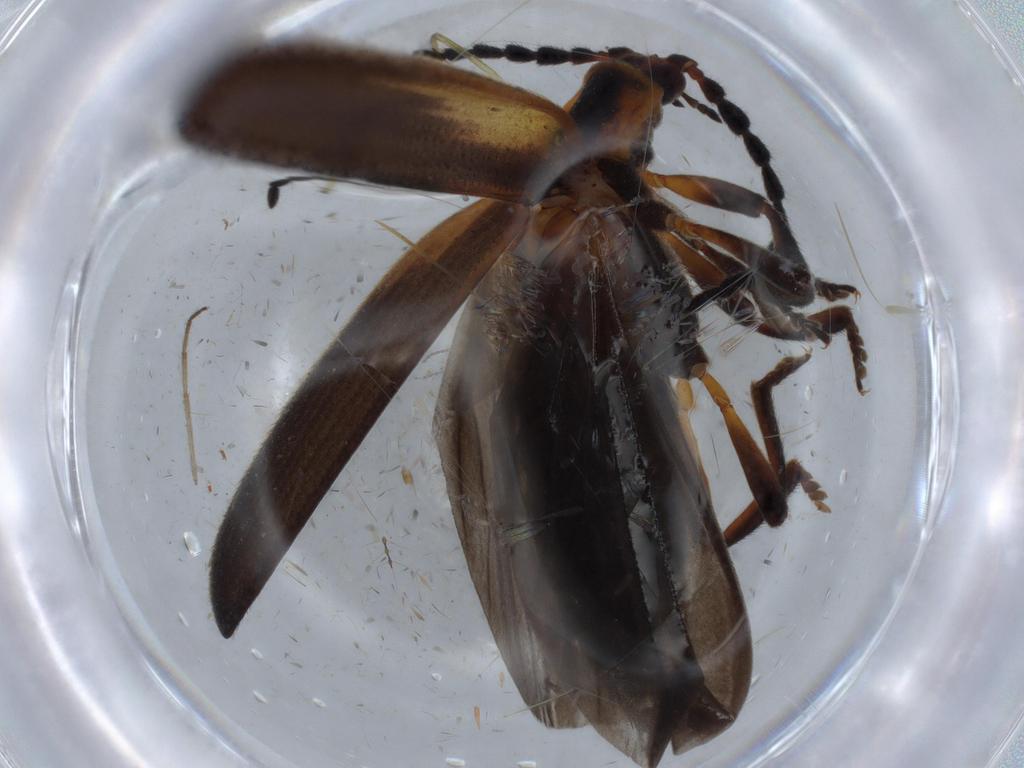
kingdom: Animalia
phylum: Arthropoda
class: Insecta
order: Coleoptera
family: Lycidae
